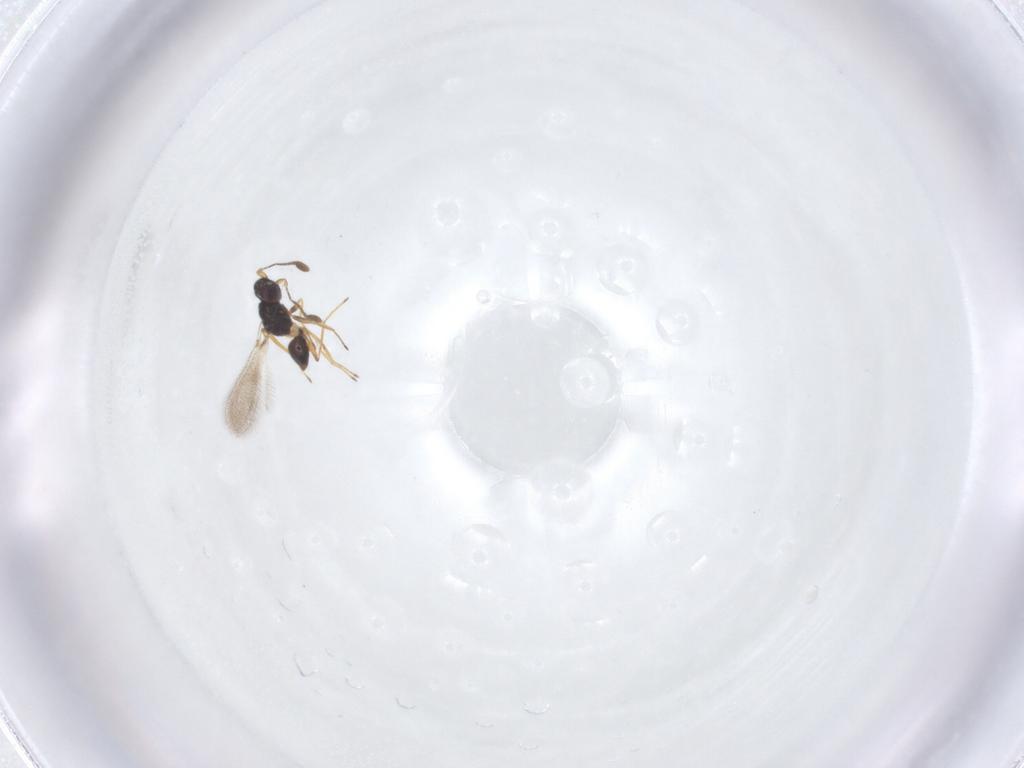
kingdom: Animalia
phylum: Arthropoda
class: Insecta
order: Hymenoptera
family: Mymaridae
